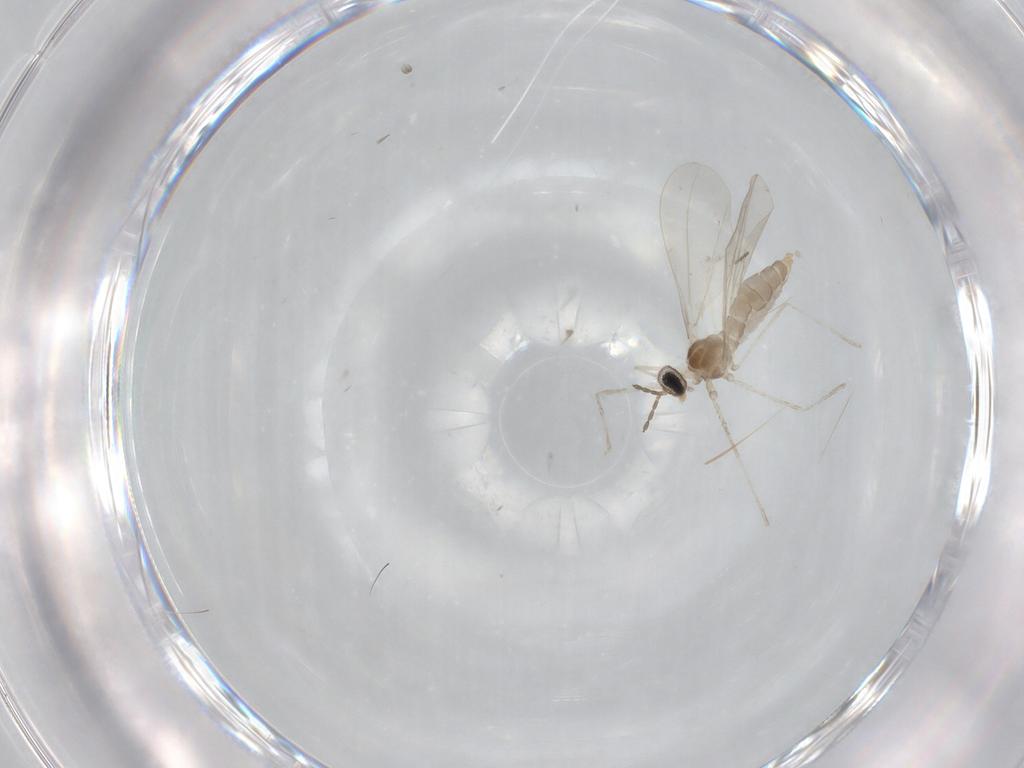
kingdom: Animalia
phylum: Arthropoda
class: Insecta
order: Diptera
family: Cecidomyiidae
